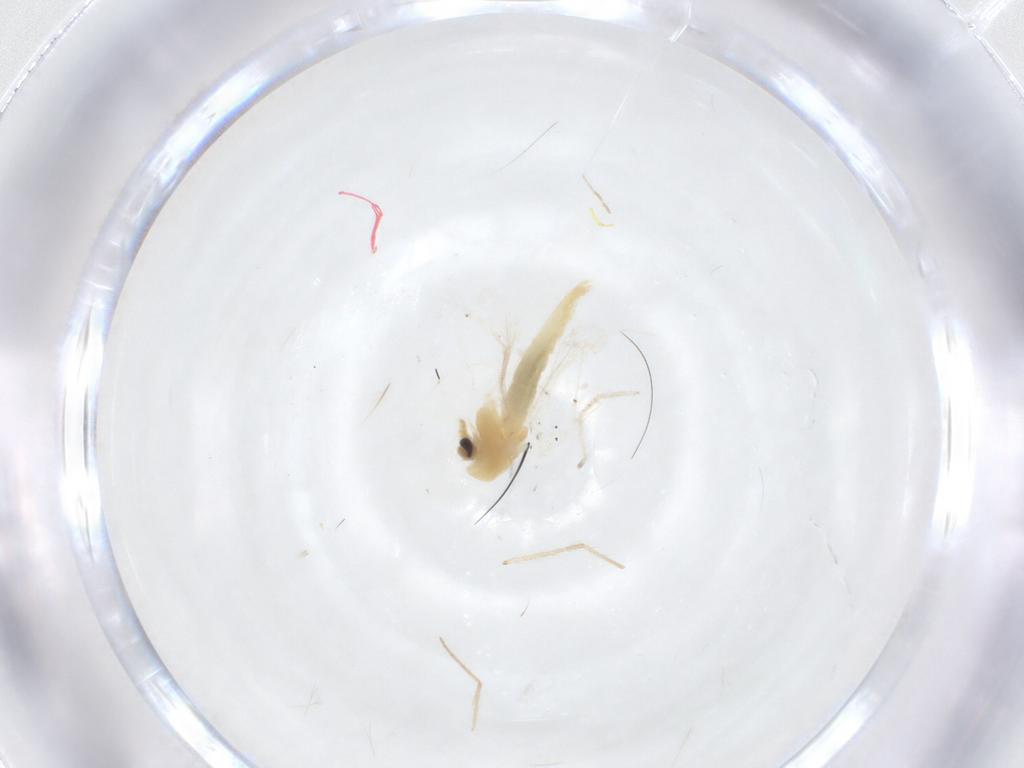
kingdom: Animalia
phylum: Arthropoda
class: Insecta
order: Diptera
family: Chironomidae
